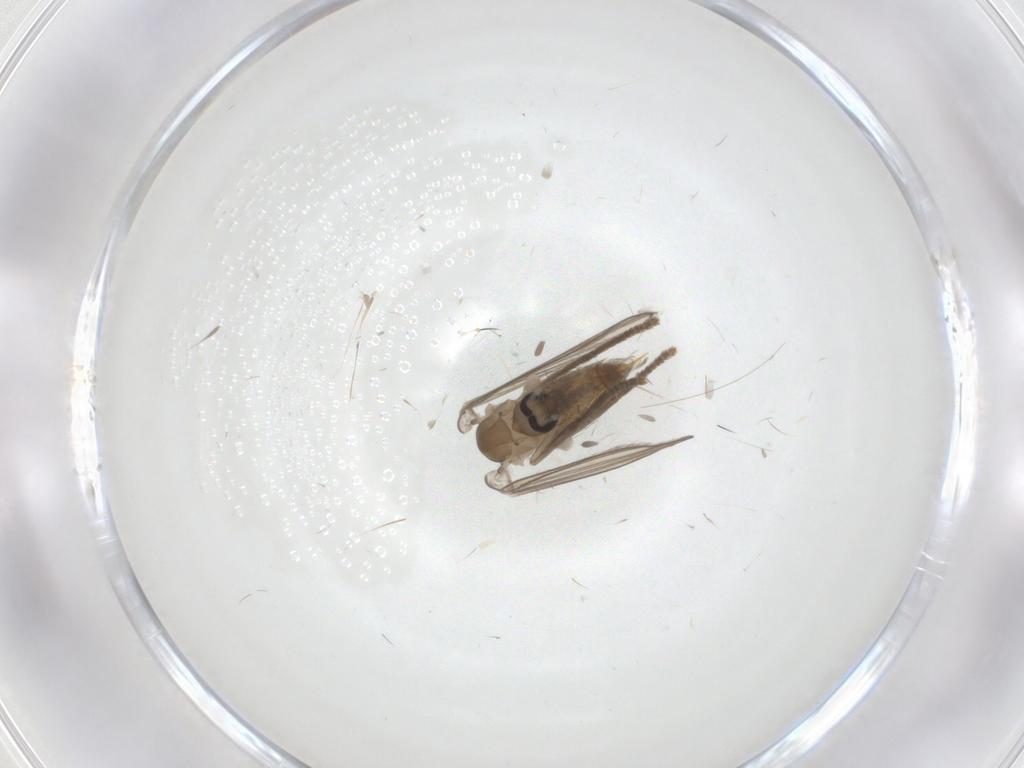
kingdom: Animalia
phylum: Arthropoda
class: Insecta
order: Diptera
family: Psychodidae
